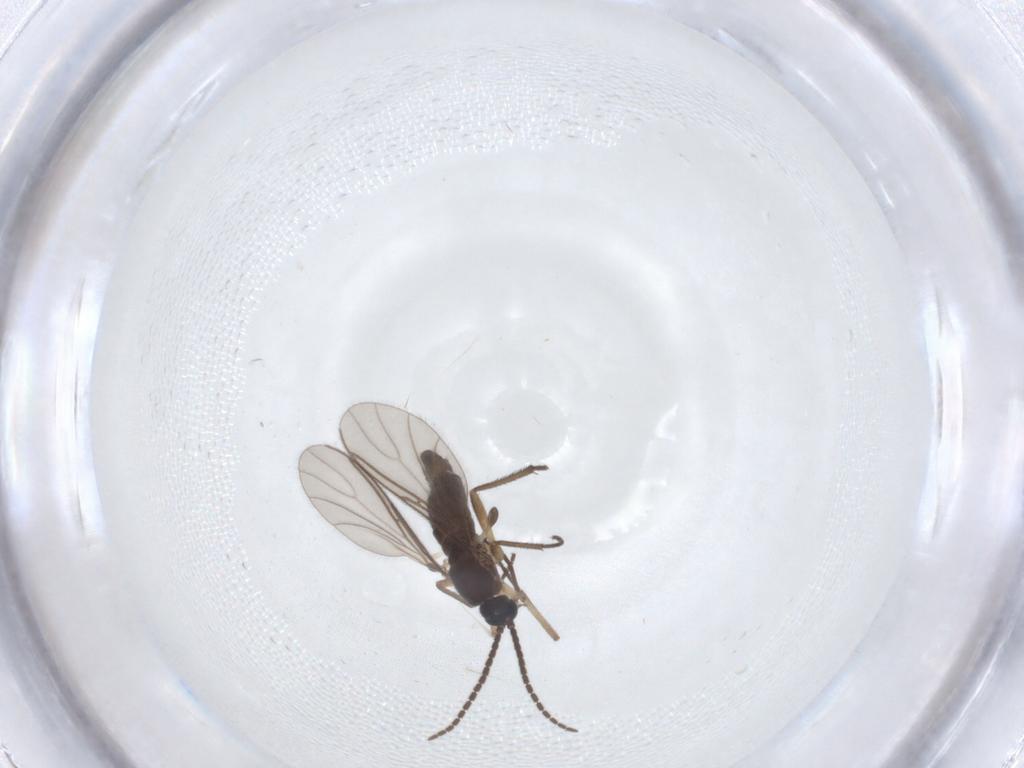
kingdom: Animalia
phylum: Arthropoda
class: Insecta
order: Diptera
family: Sciaridae
